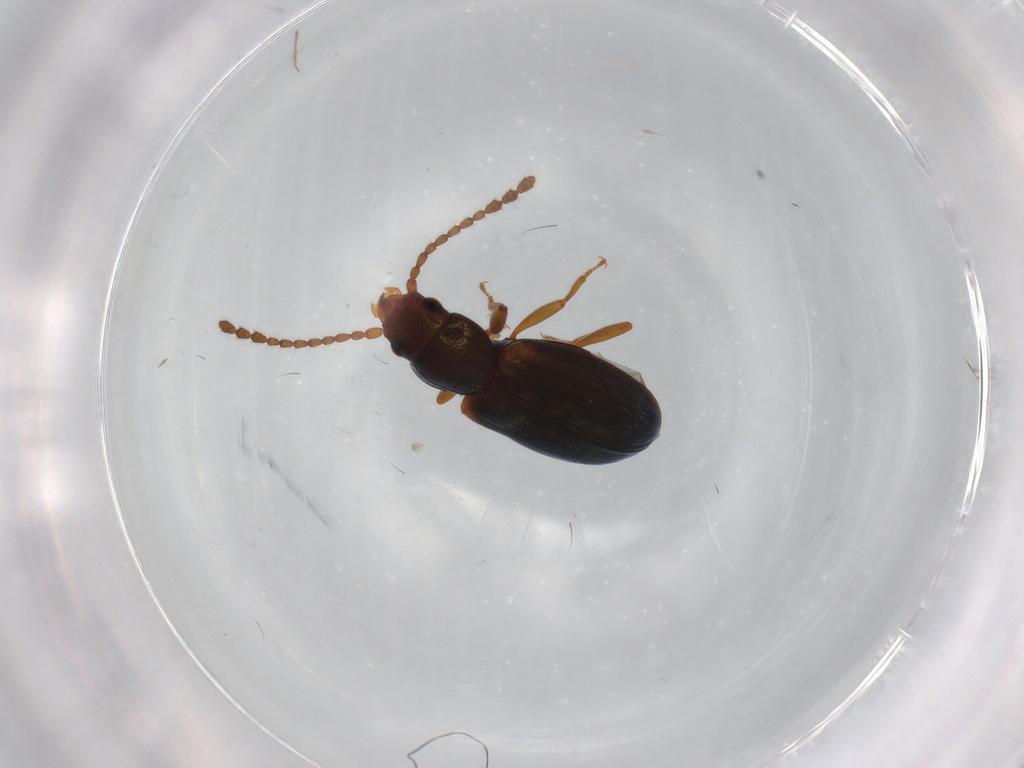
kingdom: Animalia
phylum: Arthropoda
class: Insecta
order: Coleoptera
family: Laemophloeidae
